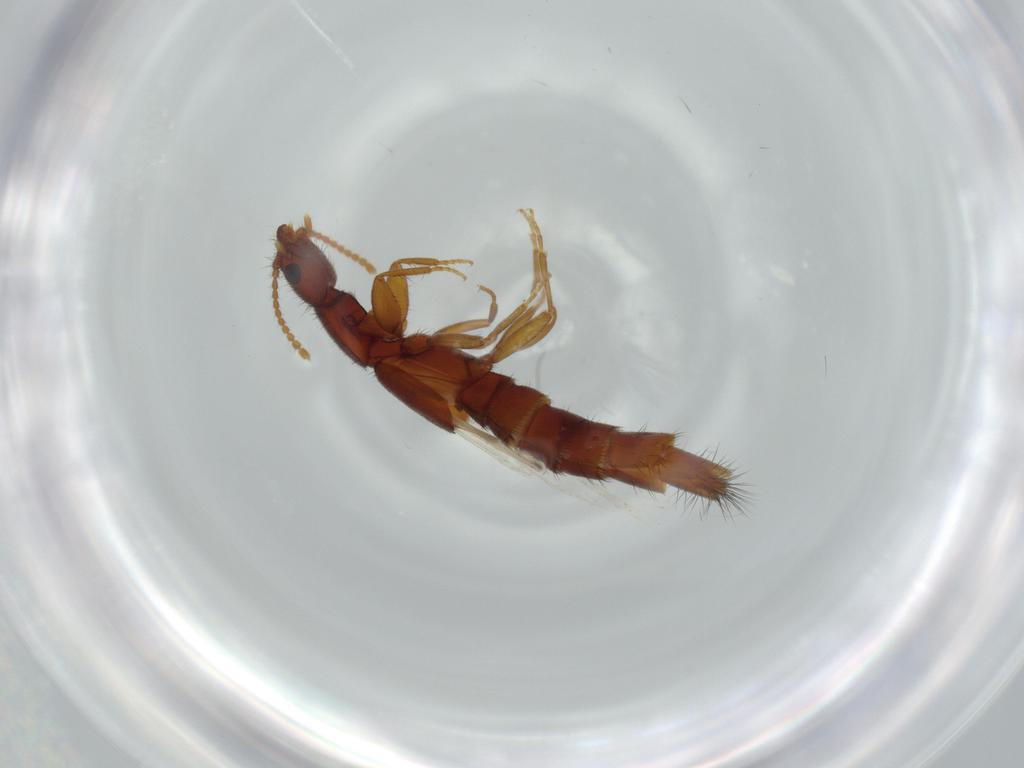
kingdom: Animalia
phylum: Arthropoda
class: Insecta
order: Coleoptera
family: Staphylinidae
